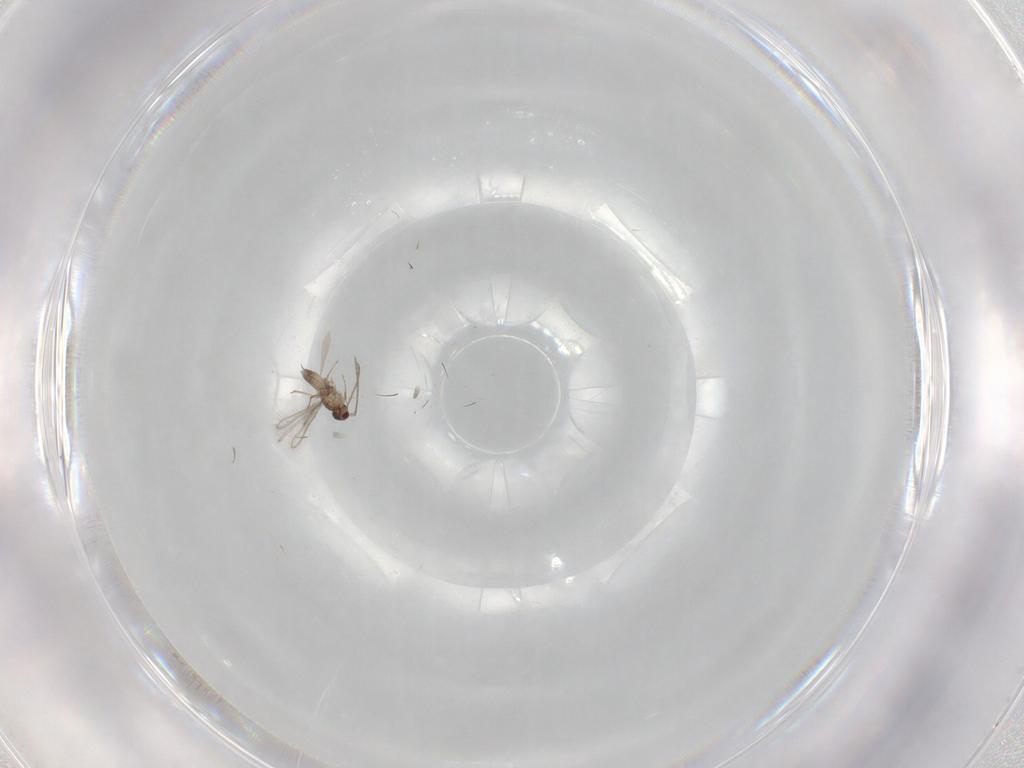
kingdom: Animalia
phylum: Arthropoda
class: Insecta
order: Hymenoptera
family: Mymaridae
